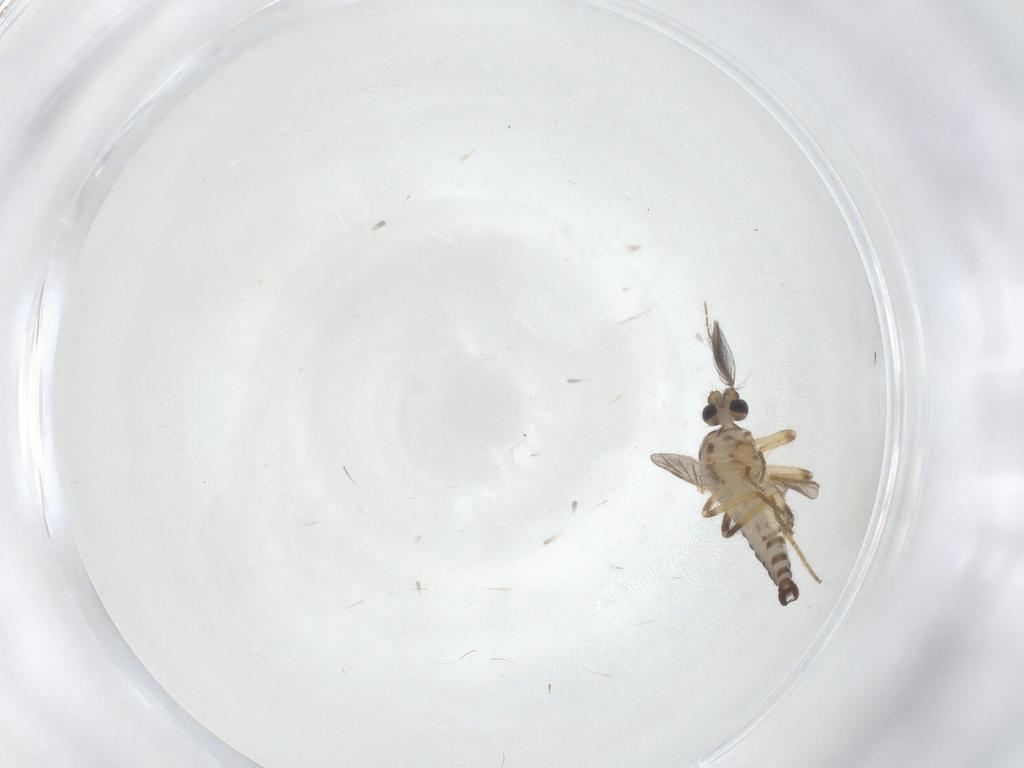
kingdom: Animalia
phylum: Arthropoda
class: Insecta
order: Diptera
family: Ceratopogonidae
